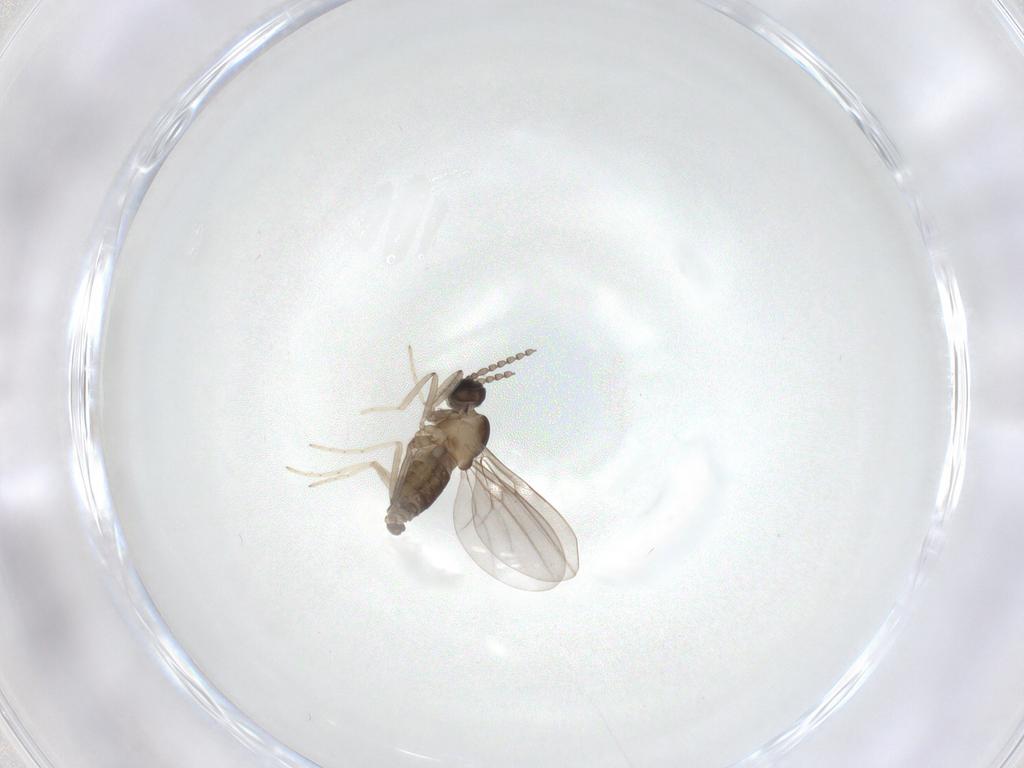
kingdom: Animalia
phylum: Arthropoda
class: Insecta
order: Diptera
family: Cecidomyiidae
